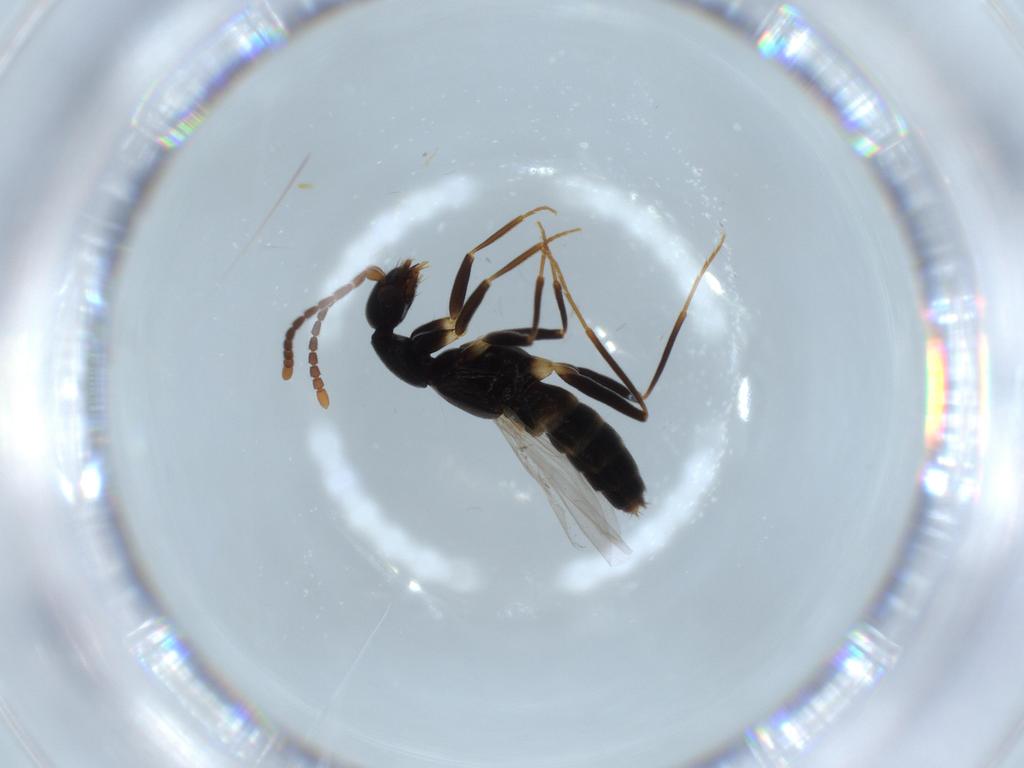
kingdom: Animalia
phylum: Arthropoda
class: Insecta
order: Coleoptera
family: Staphylinidae
